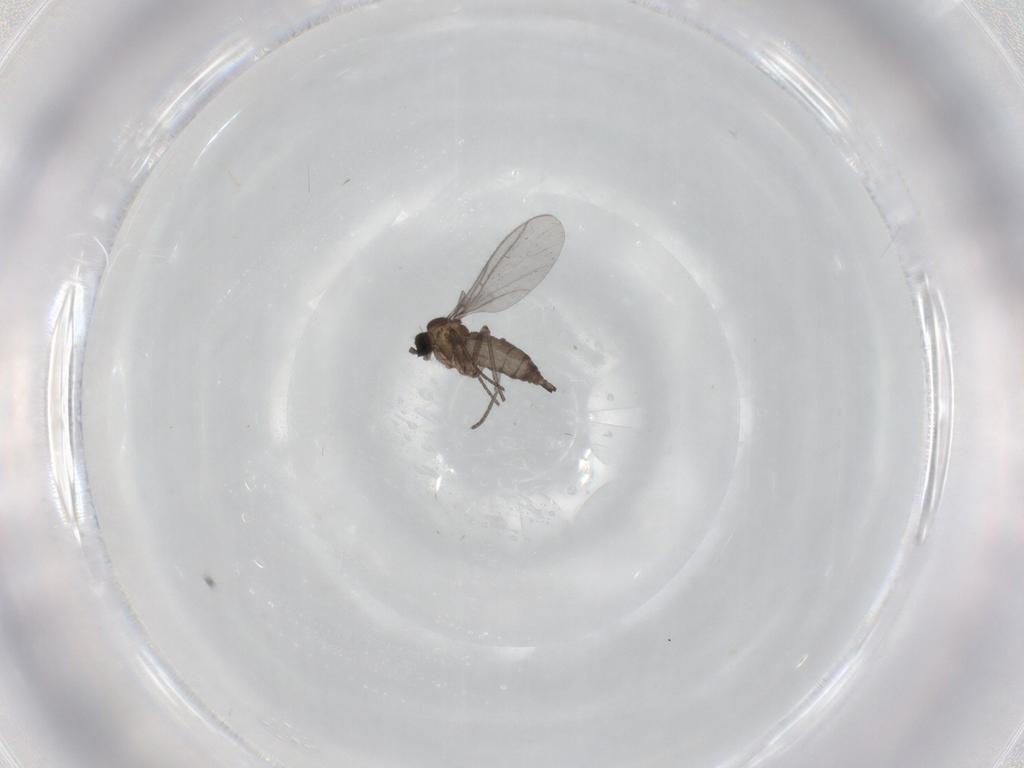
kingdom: Animalia
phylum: Arthropoda
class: Insecta
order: Diptera
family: Sciaridae
